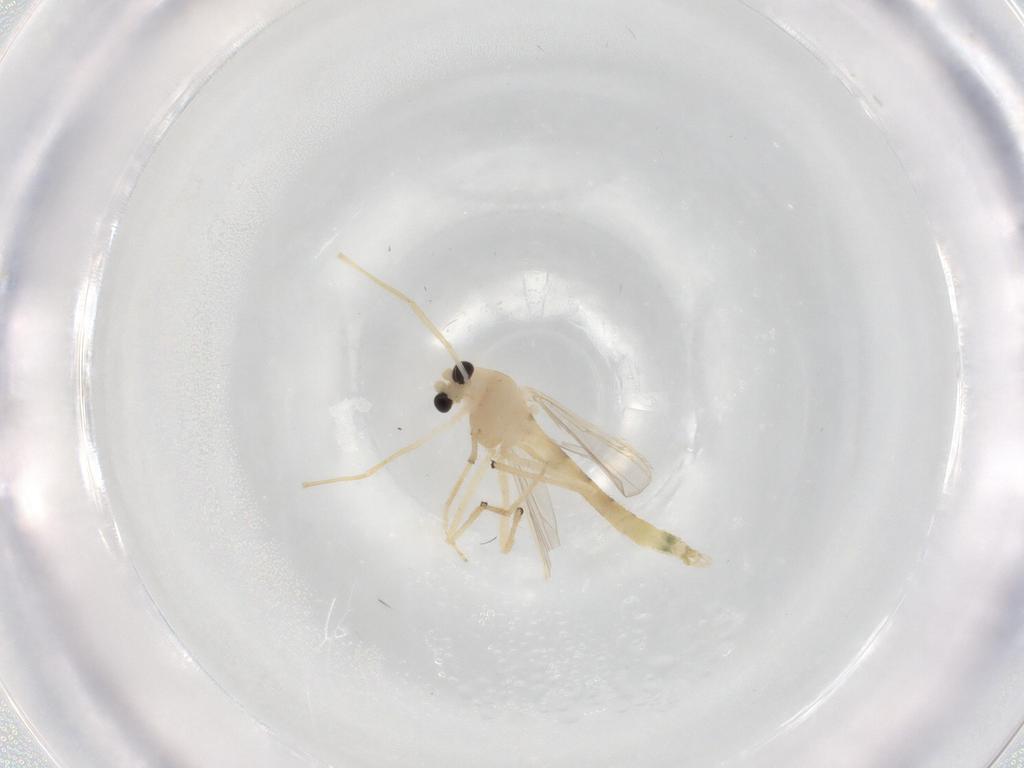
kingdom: Animalia
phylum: Arthropoda
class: Insecta
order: Diptera
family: Chironomidae
